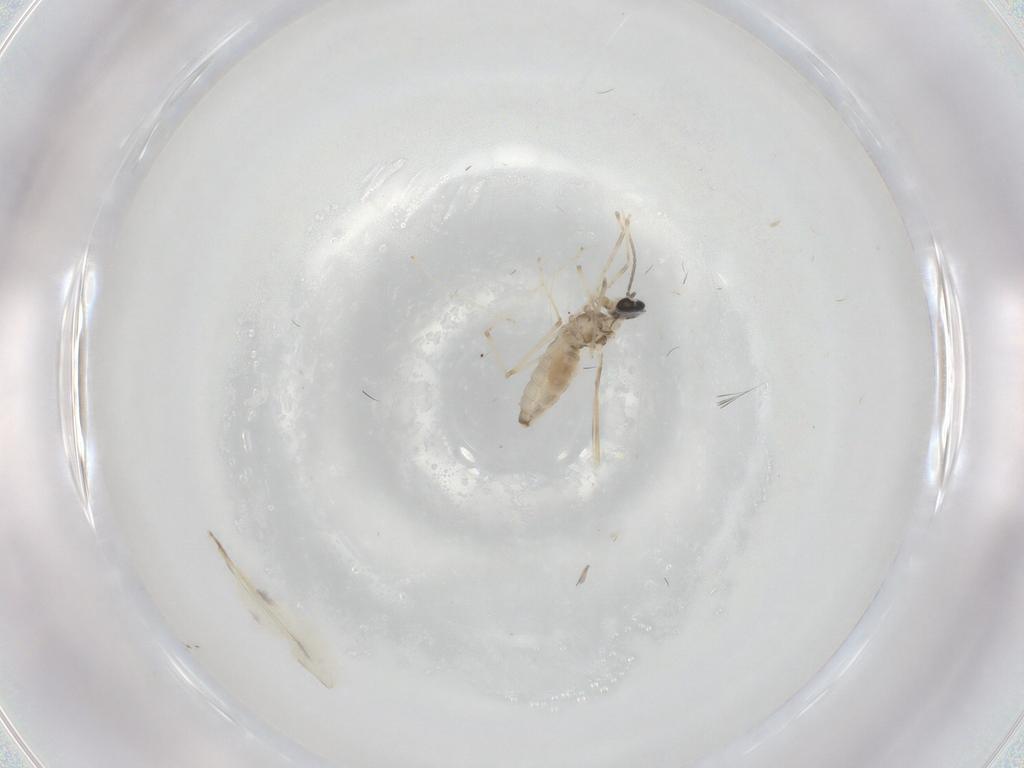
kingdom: Animalia
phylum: Arthropoda
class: Insecta
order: Diptera
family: Cecidomyiidae
